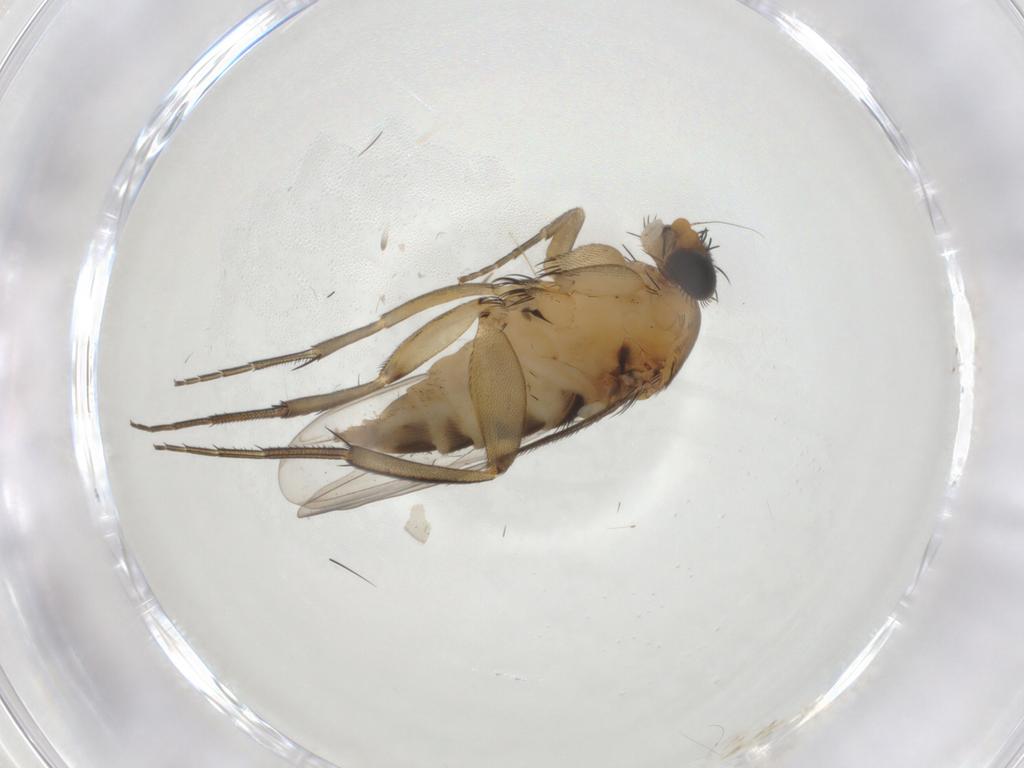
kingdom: Animalia
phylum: Arthropoda
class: Insecta
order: Diptera
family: Phoridae
